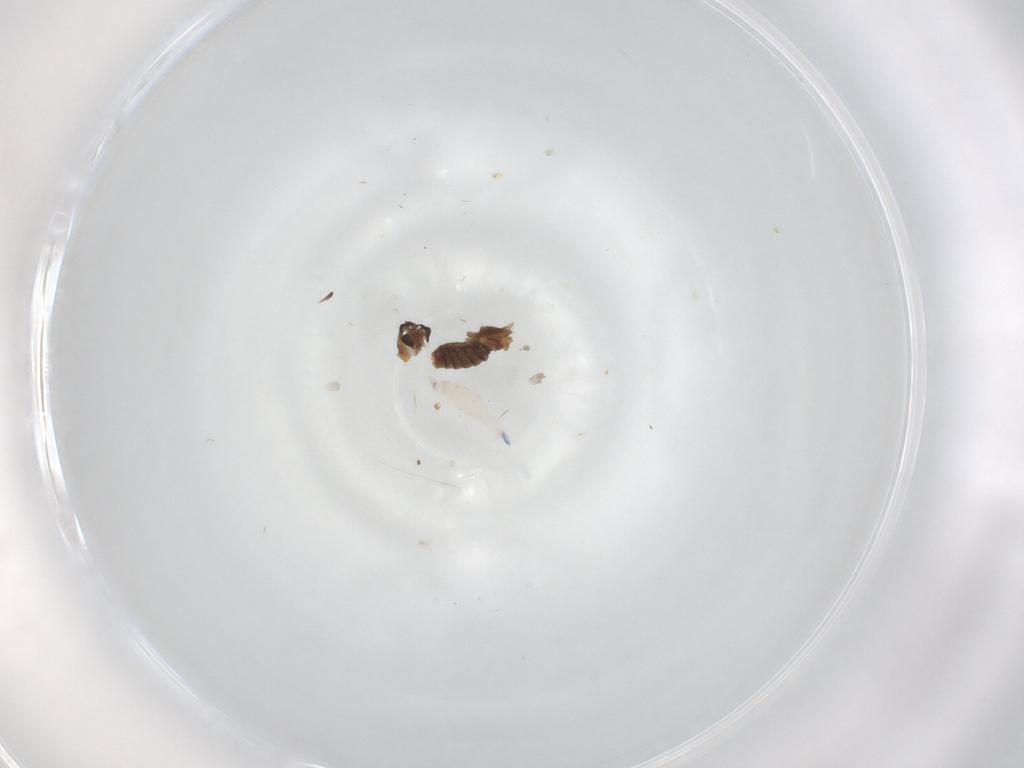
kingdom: Animalia
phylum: Arthropoda
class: Insecta
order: Diptera
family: Cecidomyiidae
